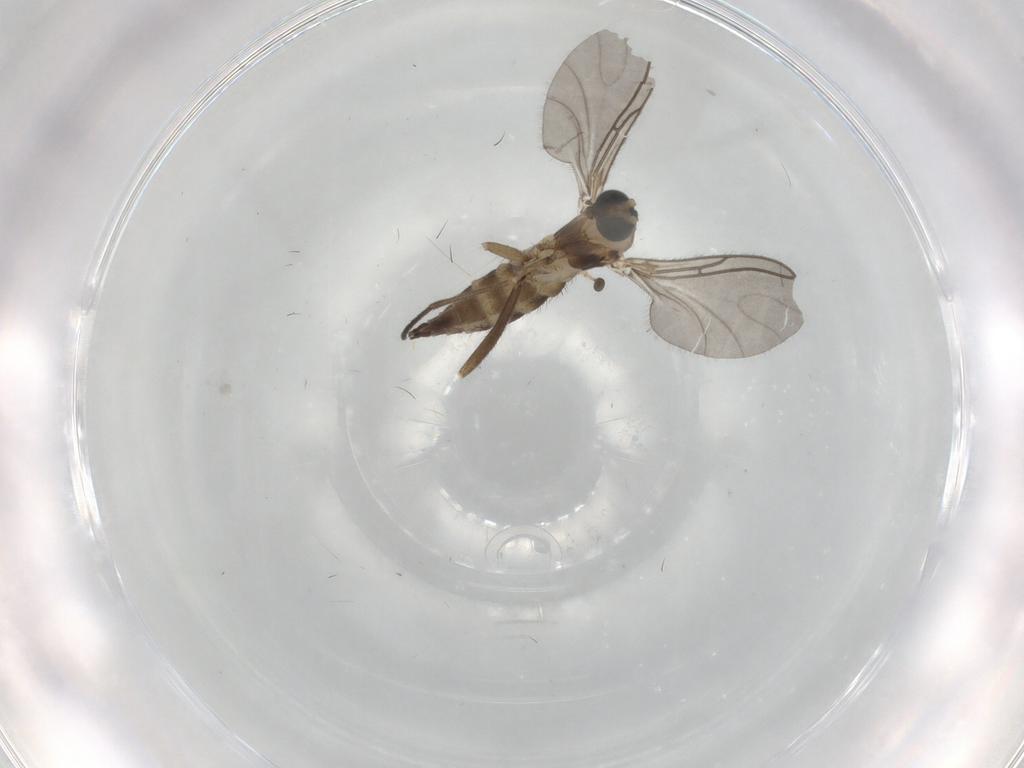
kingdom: Animalia
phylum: Arthropoda
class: Insecta
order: Diptera
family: Sciaridae
